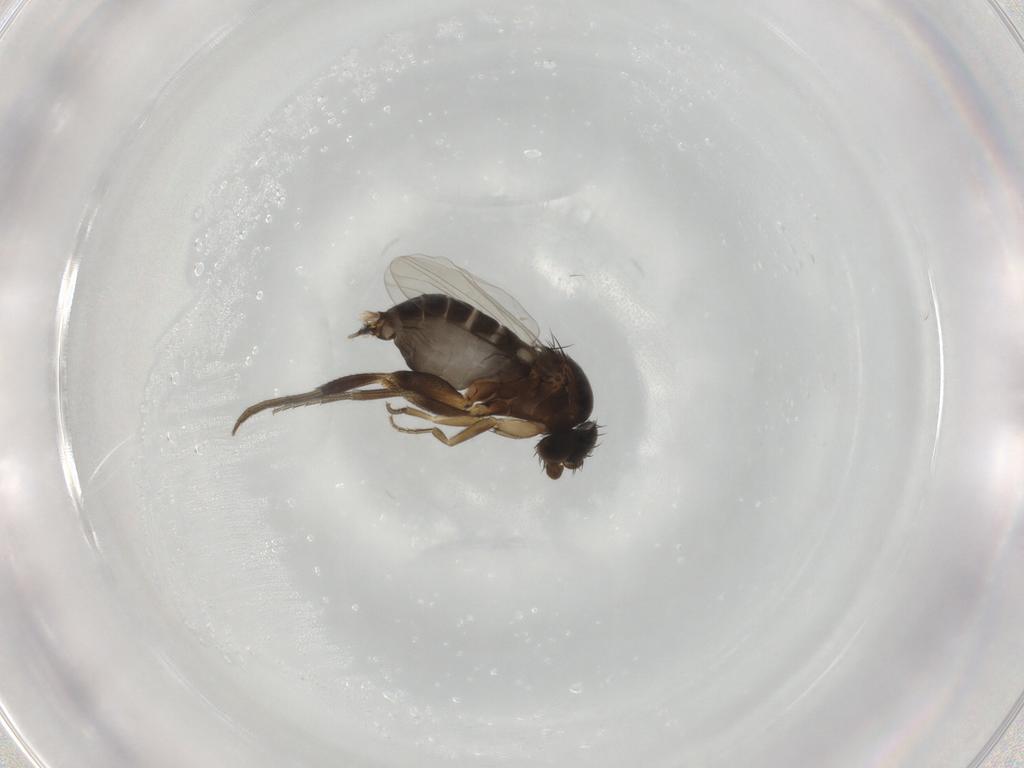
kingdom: Animalia
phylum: Arthropoda
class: Insecta
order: Diptera
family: Phoridae
